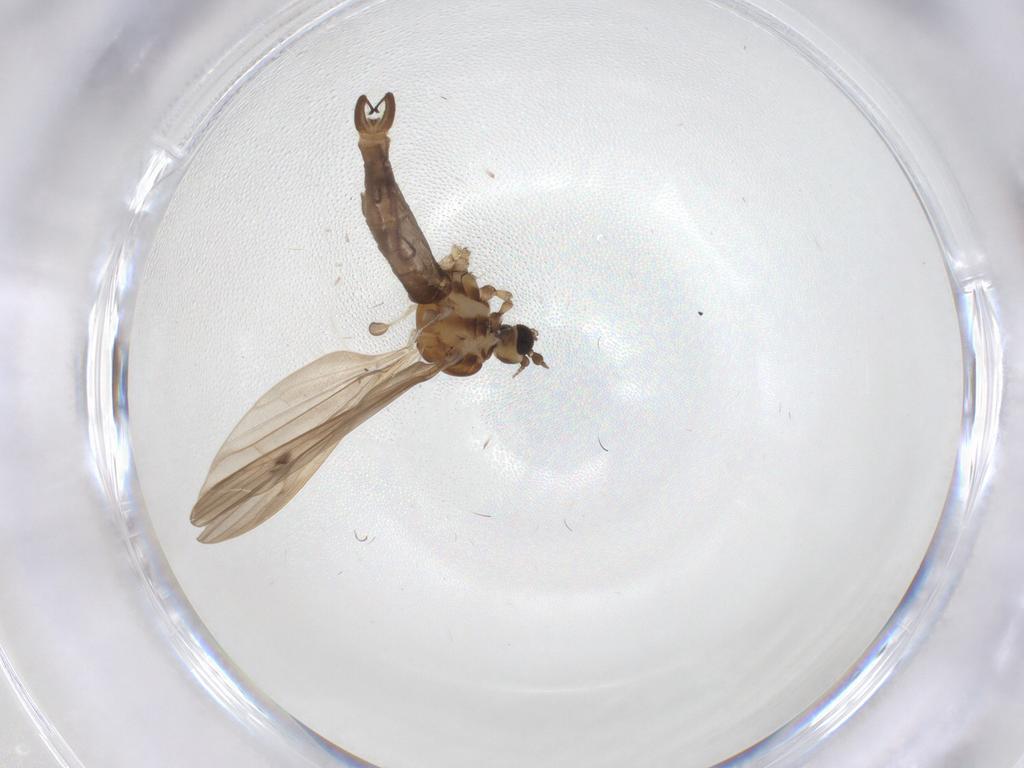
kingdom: Animalia
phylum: Arthropoda
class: Insecta
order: Diptera
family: Limoniidae
